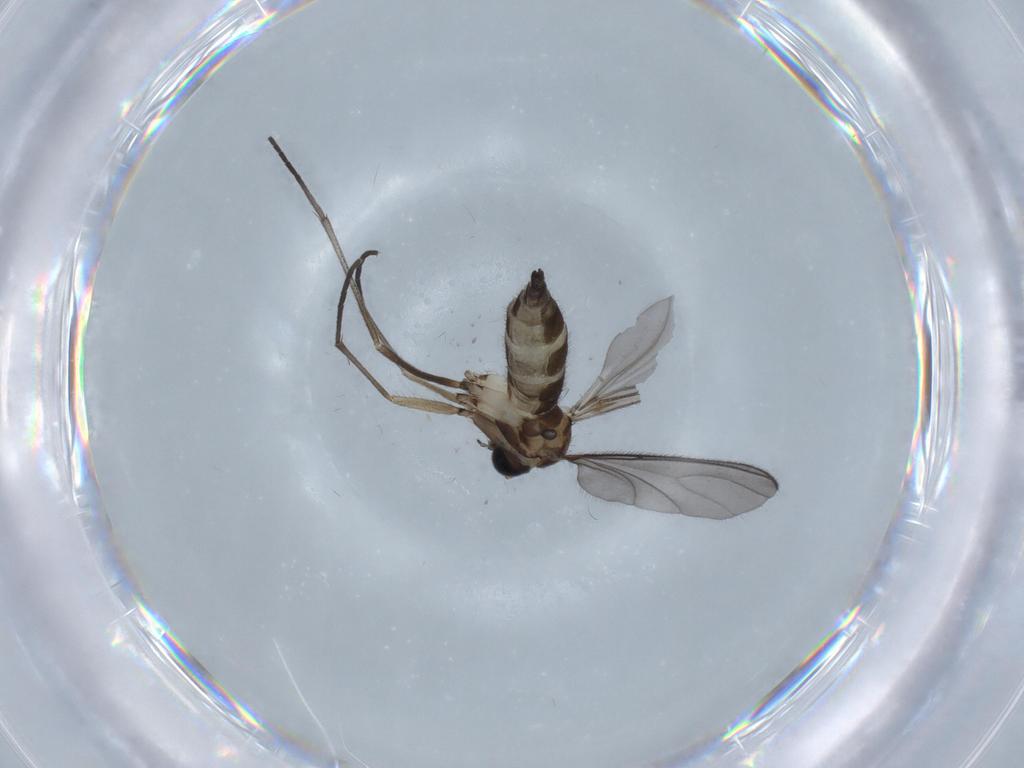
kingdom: Animalia
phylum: Arthropoda
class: Insecta
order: Diptera
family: Sciaridae
